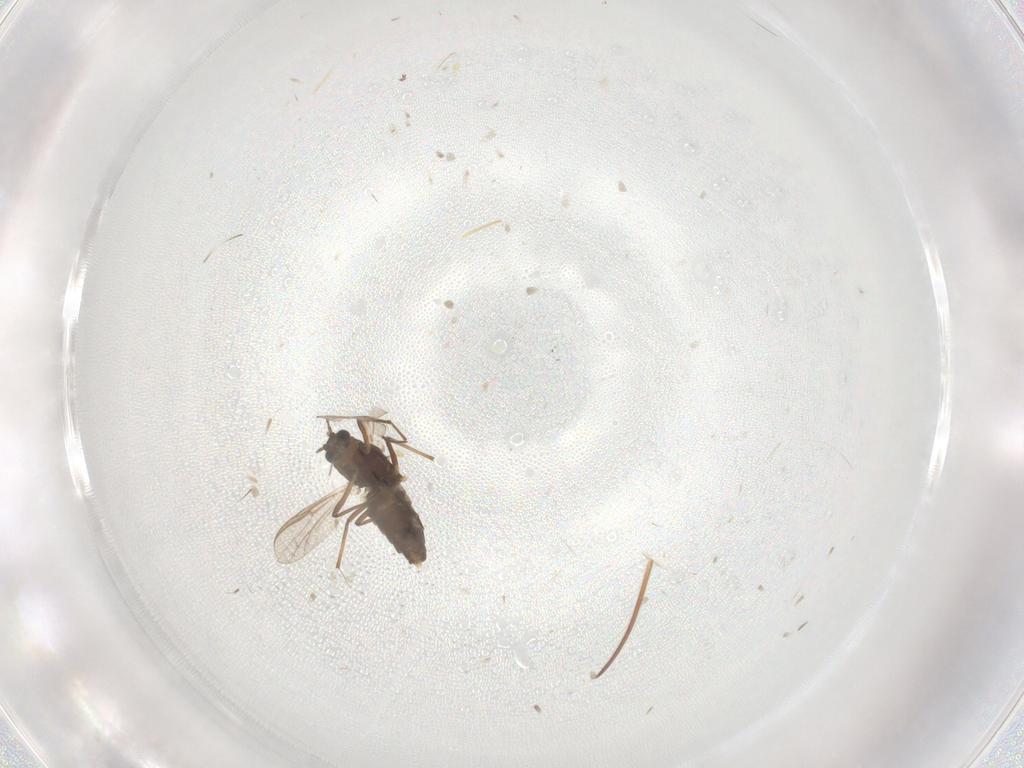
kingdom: Animalia
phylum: Arthropoda
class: Insecta
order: Diptera
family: Chironomidae
